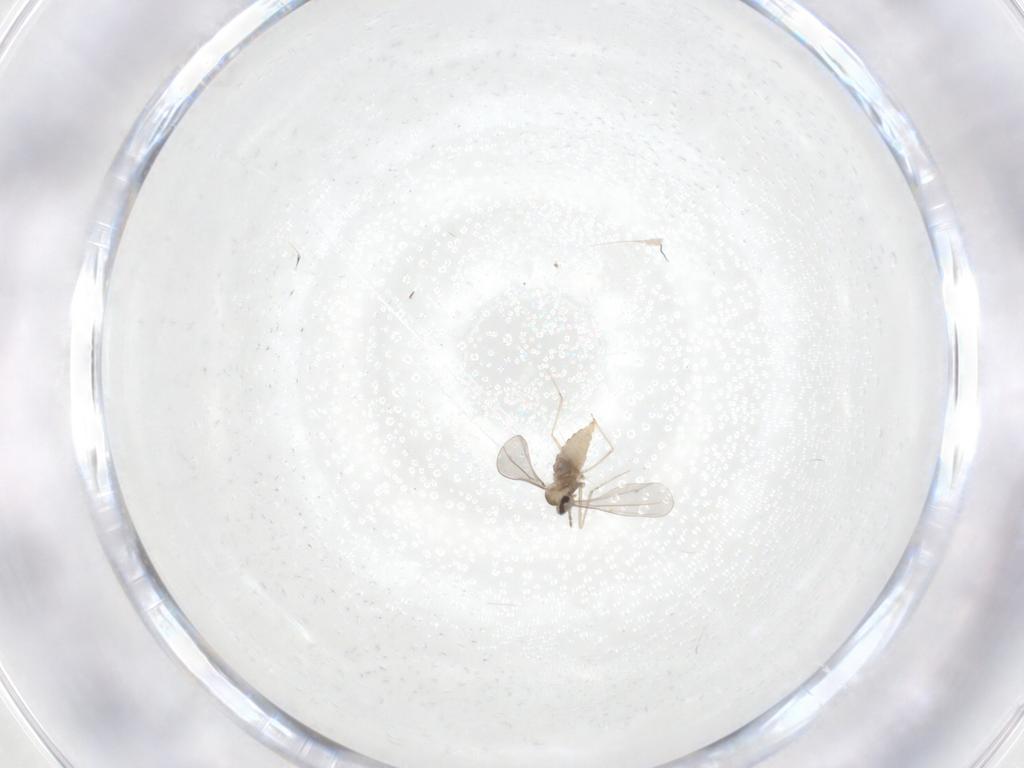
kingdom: Animalia
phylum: Arthropoda
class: Insecta
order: Diptera
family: Cecidomyiidae
